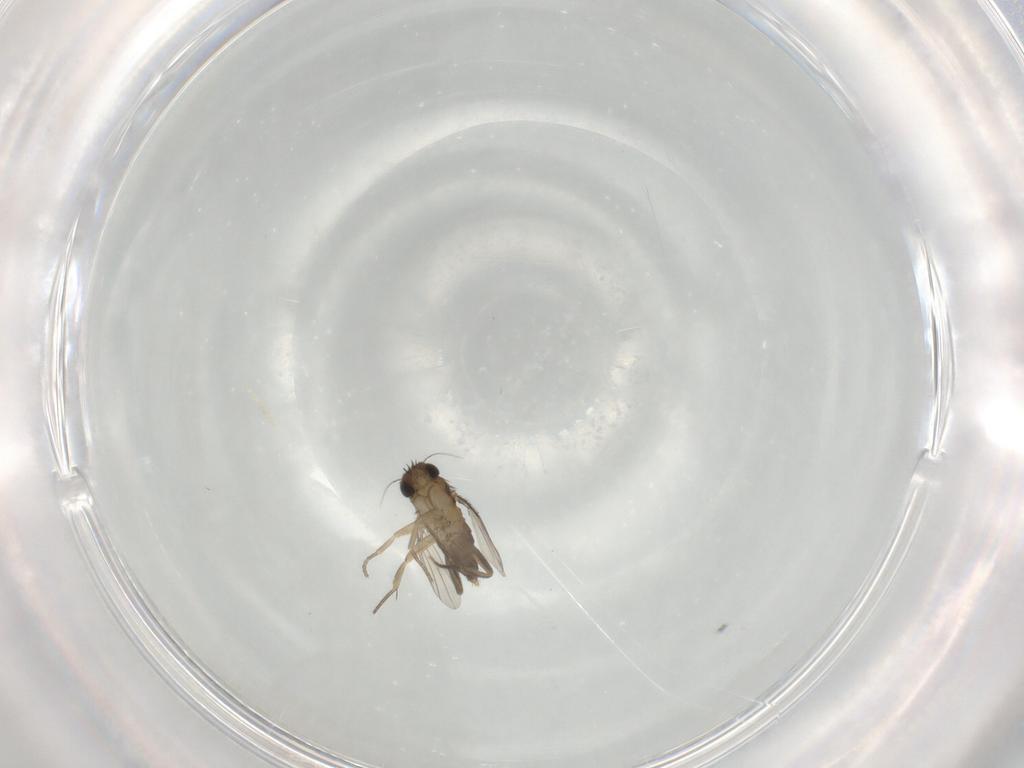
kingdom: Animalia
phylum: Arthropoda
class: Insecta
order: Diptera
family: Phoridae
